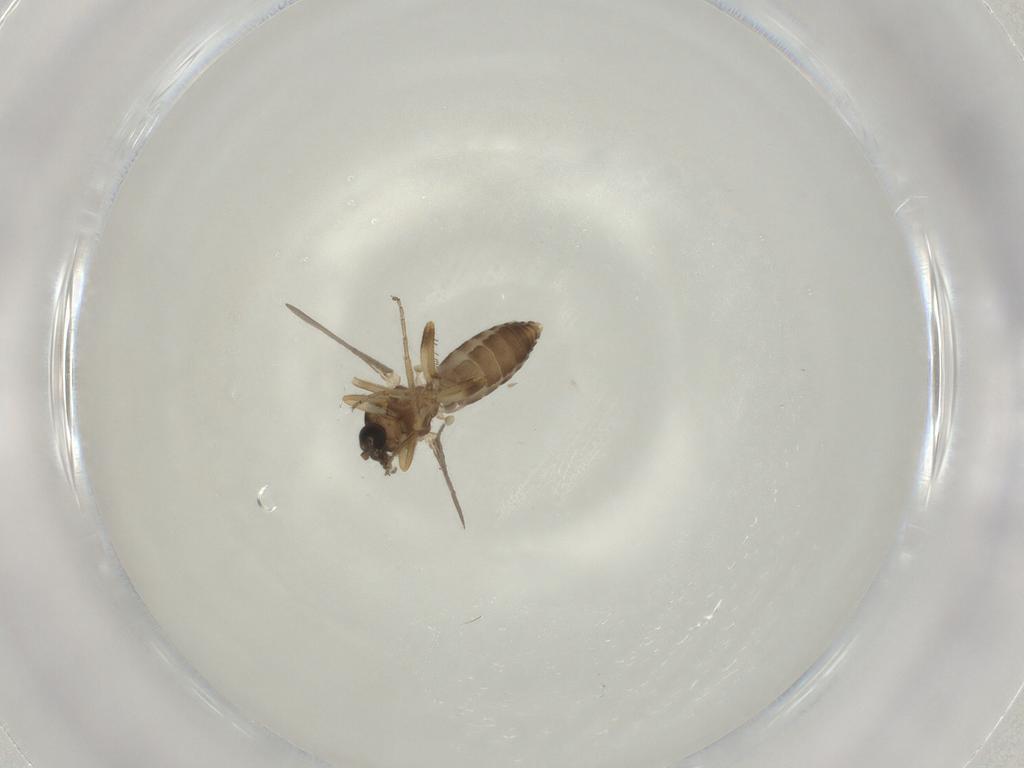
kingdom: Animalia
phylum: Arthropoda
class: Insecta
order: Diptera
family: Ceratopogonidae
